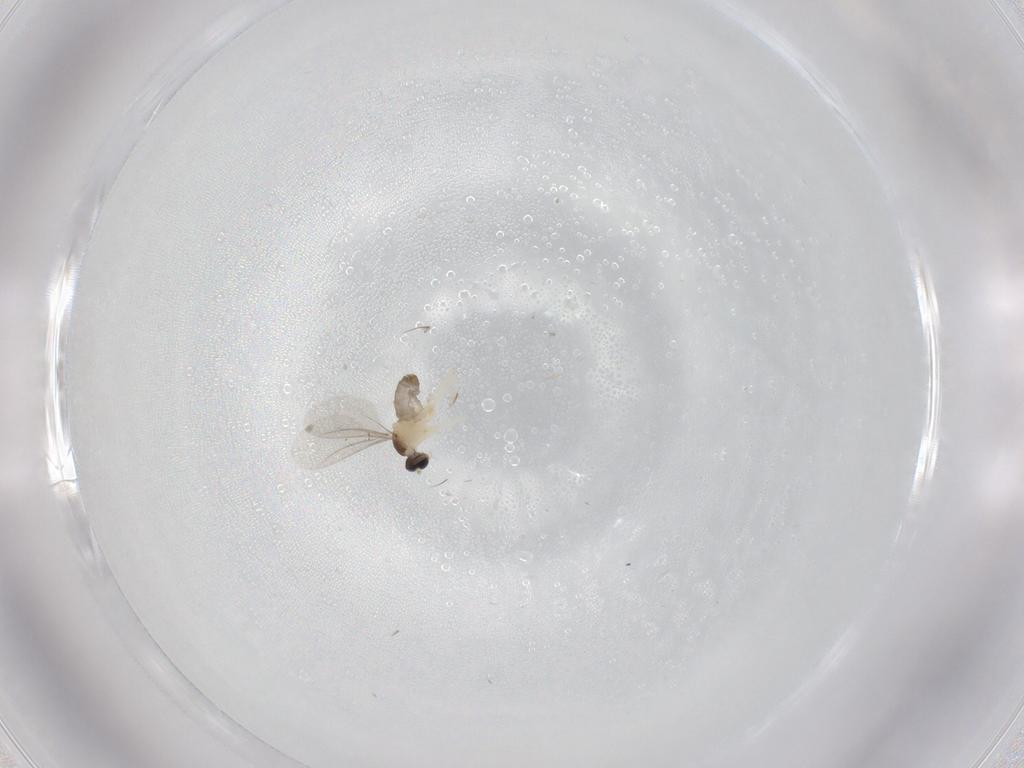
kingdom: Animalia
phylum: Arthropoda
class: Insecta
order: Diptera
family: Cecidomyiidae
